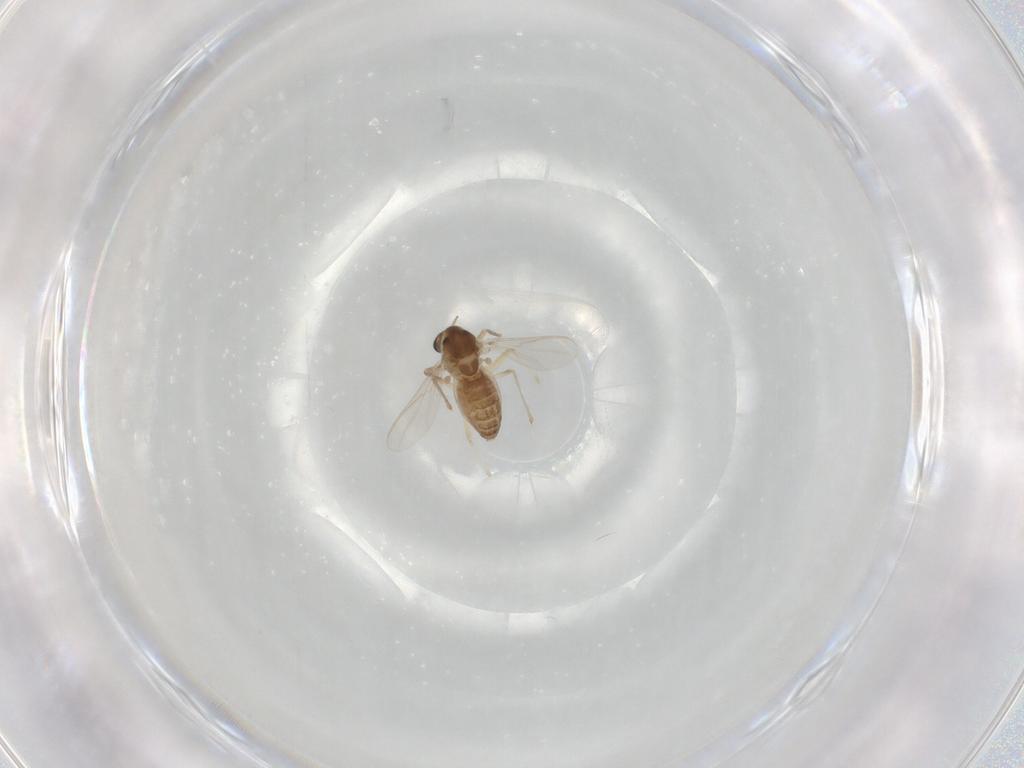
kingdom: Animalia
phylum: Arthropoda
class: Insecta
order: Diptera
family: Chironomidae
